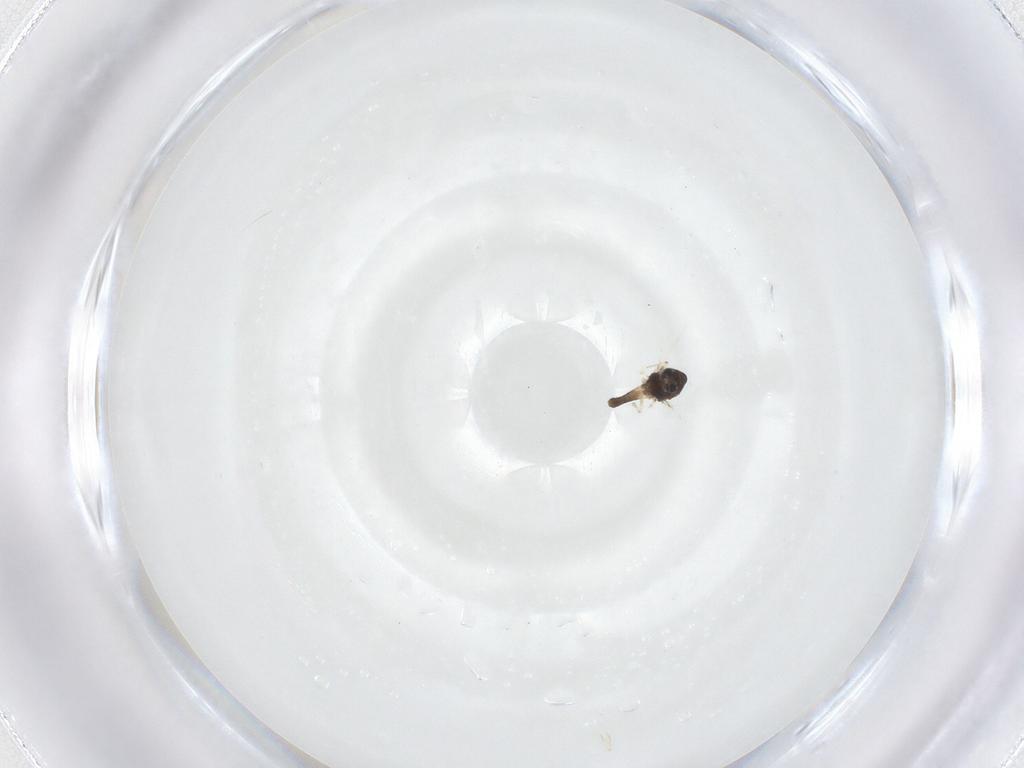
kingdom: Animalia
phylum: Arthropoda
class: Insecta
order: Diptera
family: Chironomidae
